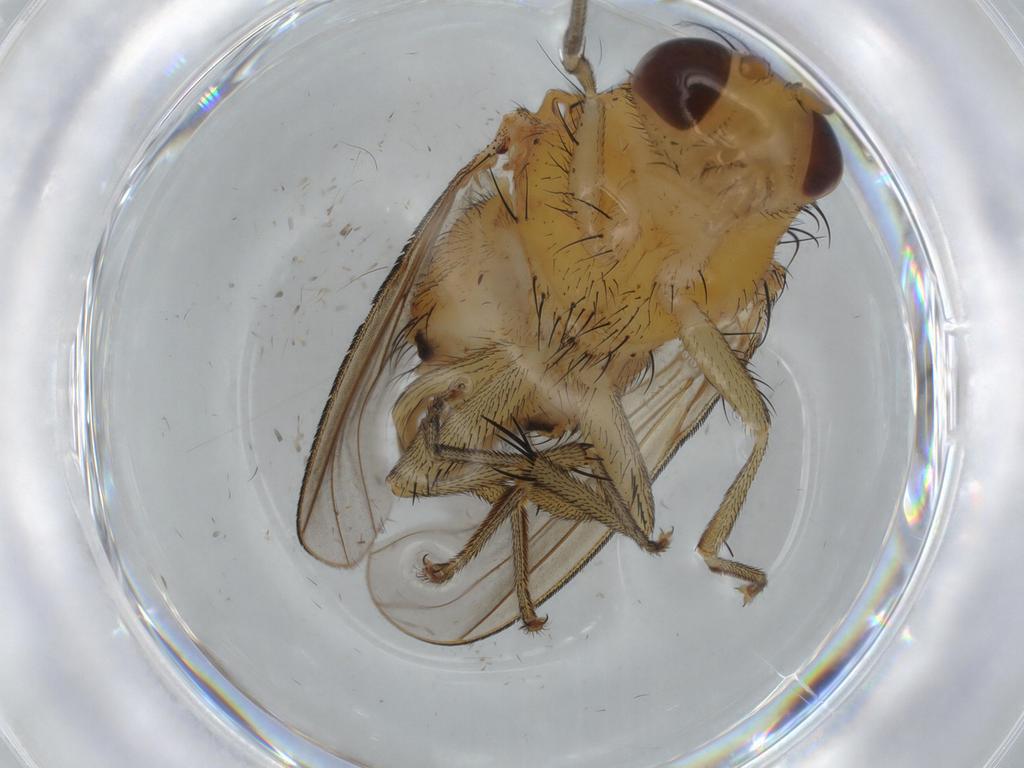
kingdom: Animalia
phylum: Arthropoda
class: Insecta
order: Diptera
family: Psychodidae
